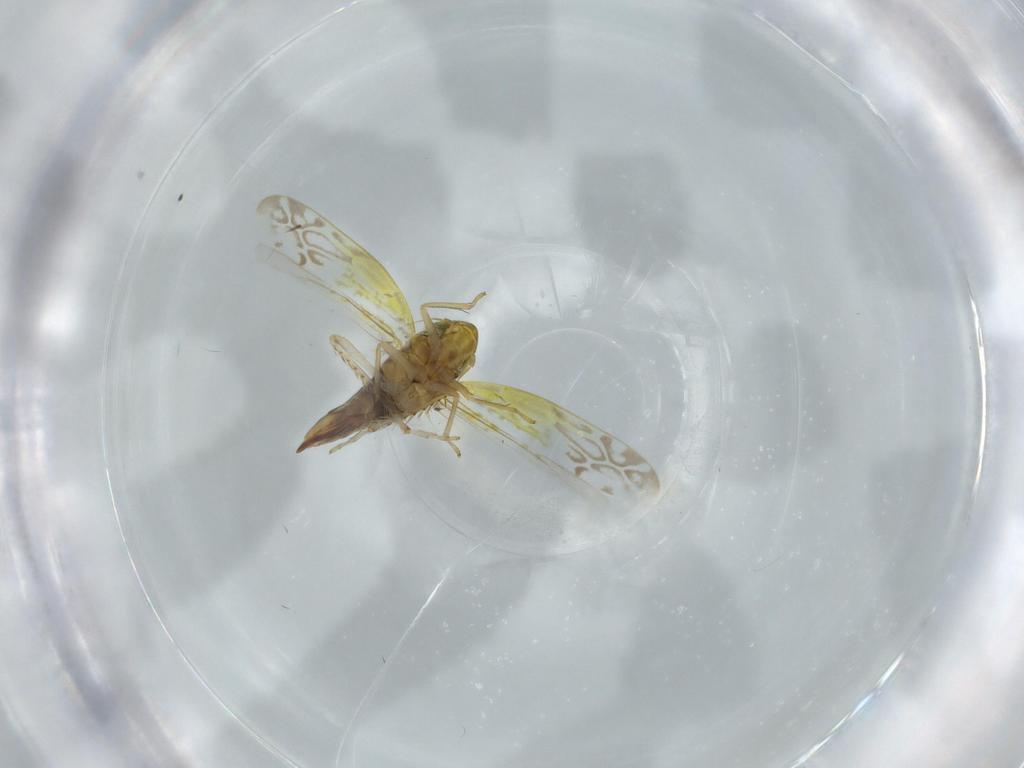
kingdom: Animalia
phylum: Arthropoda
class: Insecta
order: Hemiptera
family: Cicadellidae
